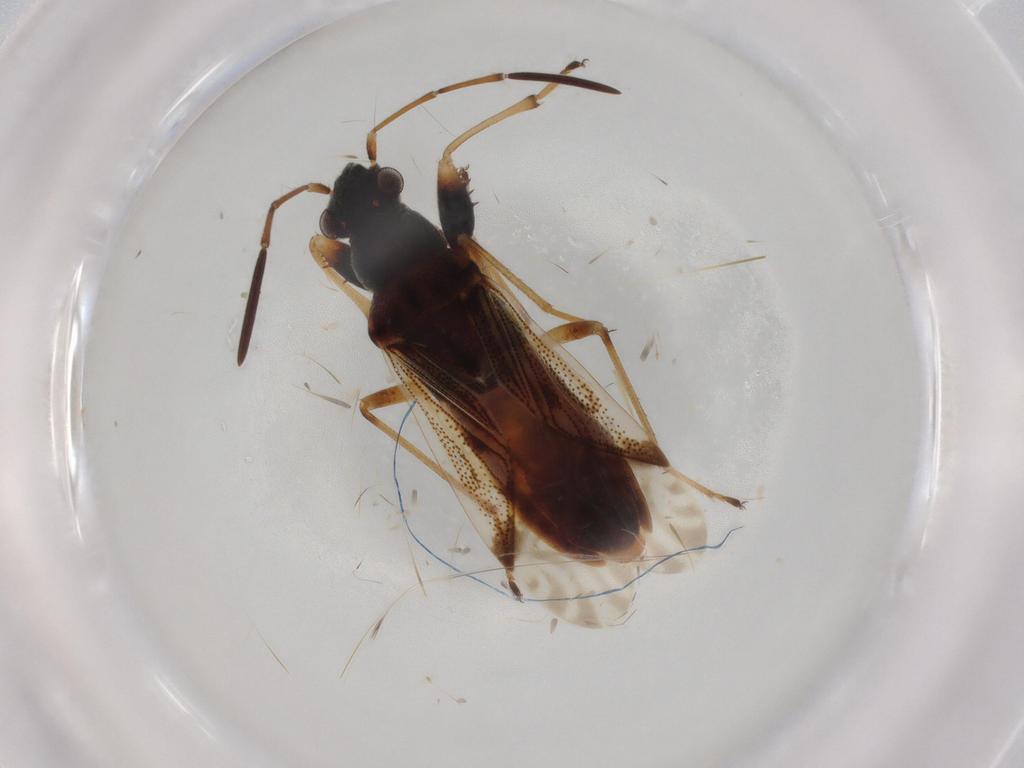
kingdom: Animalia
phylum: Arthropoda
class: Insecta
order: Hemiptera
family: Rhyparochromidae
